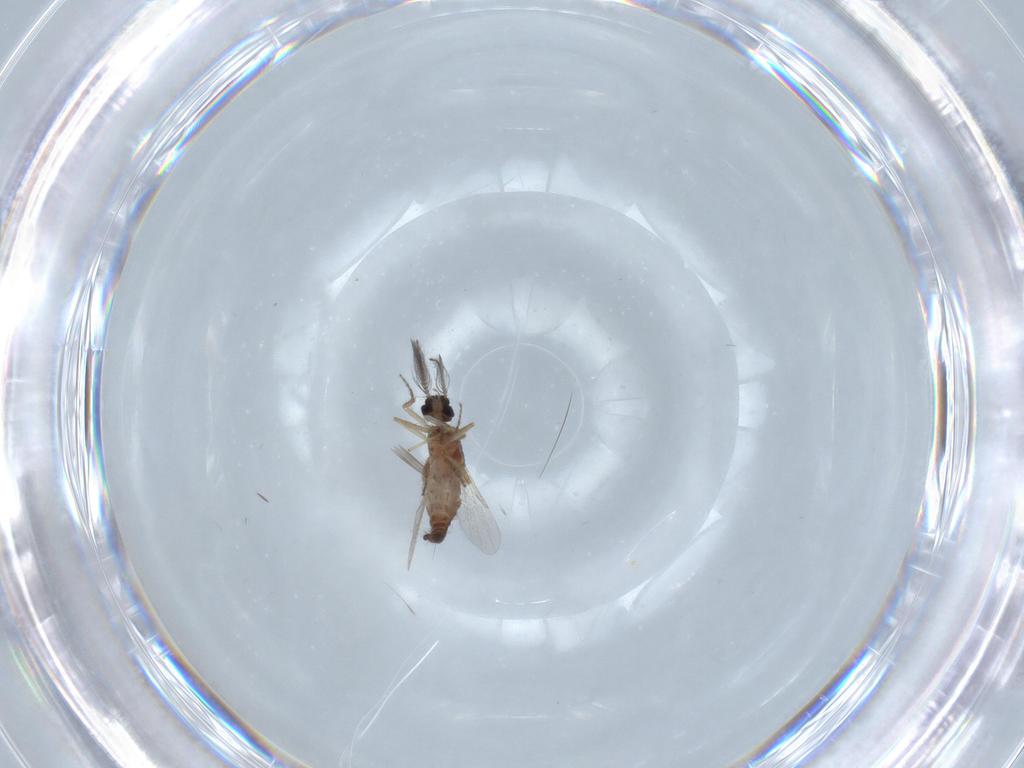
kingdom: Animalia
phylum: Arthropoda
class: Insecta
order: Diptera
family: Ceratopogonidae
